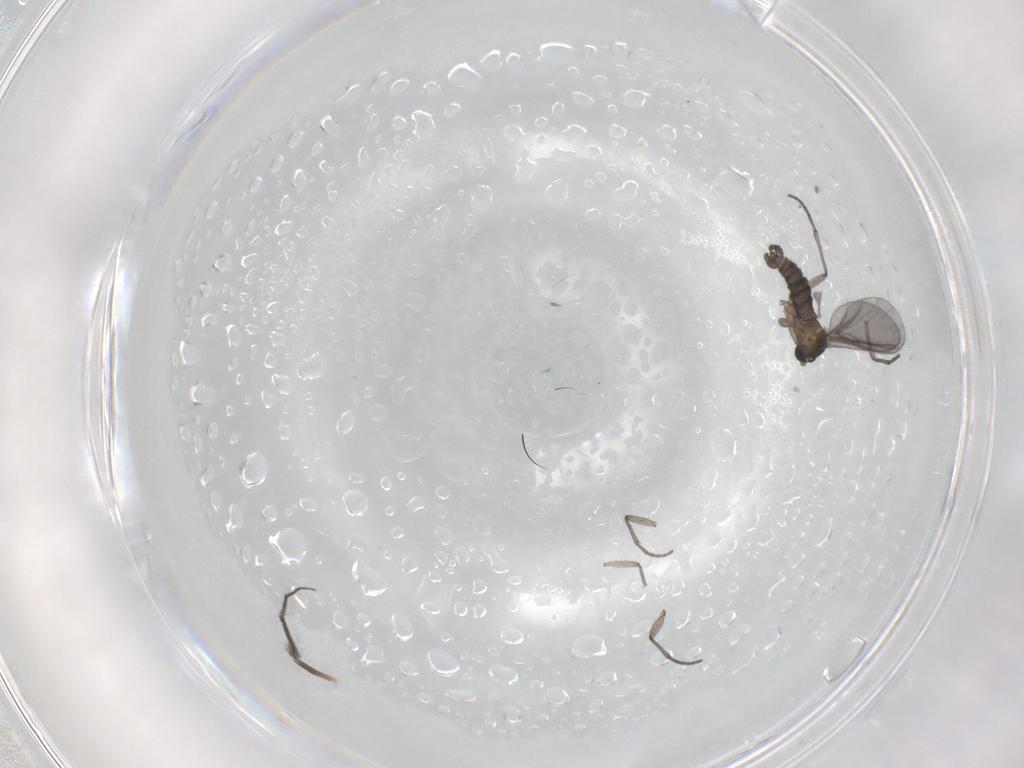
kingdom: Animalia
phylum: Arthropoda
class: Insecta
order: Diptera
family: Sciaridae
